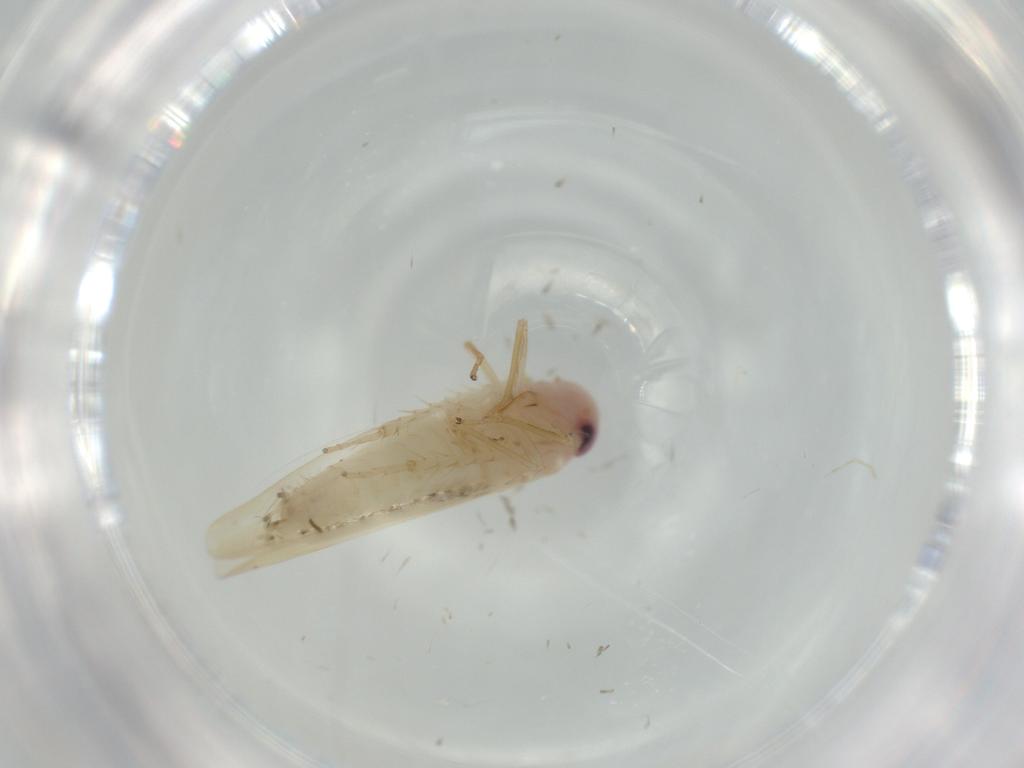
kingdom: Animalia
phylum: Arthropoda
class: Insecta
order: Hemiptera
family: Cicadellidae
